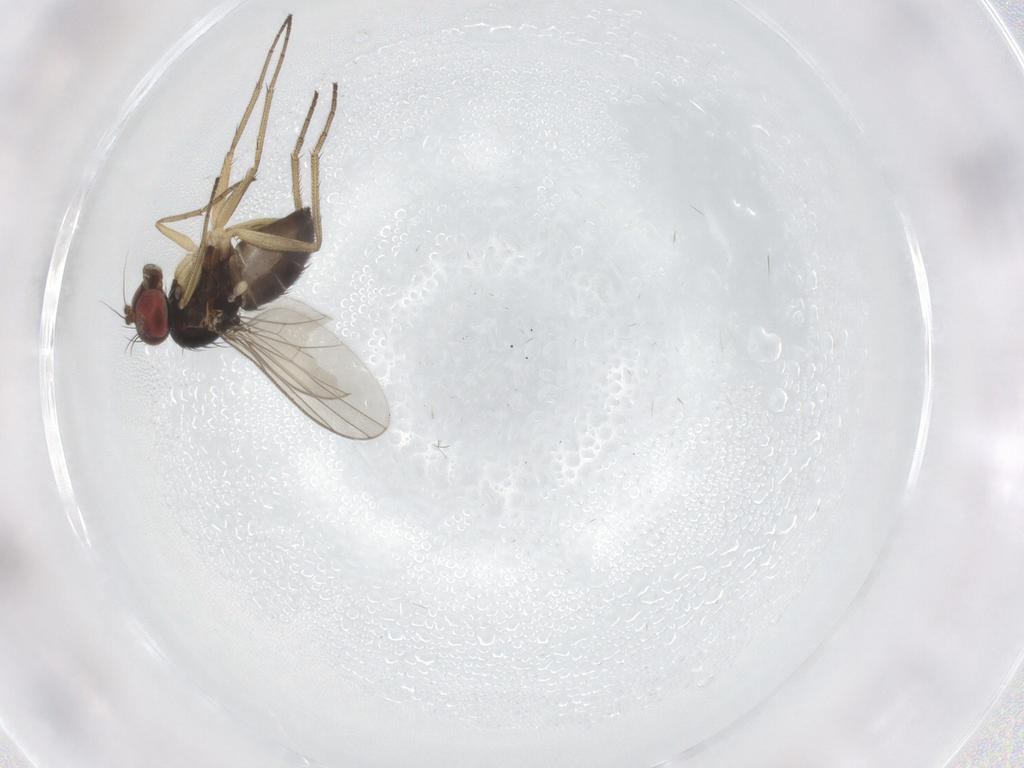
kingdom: Animalia
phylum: Arthropoda
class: Insecta
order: Diptera
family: Dolichopodidae
